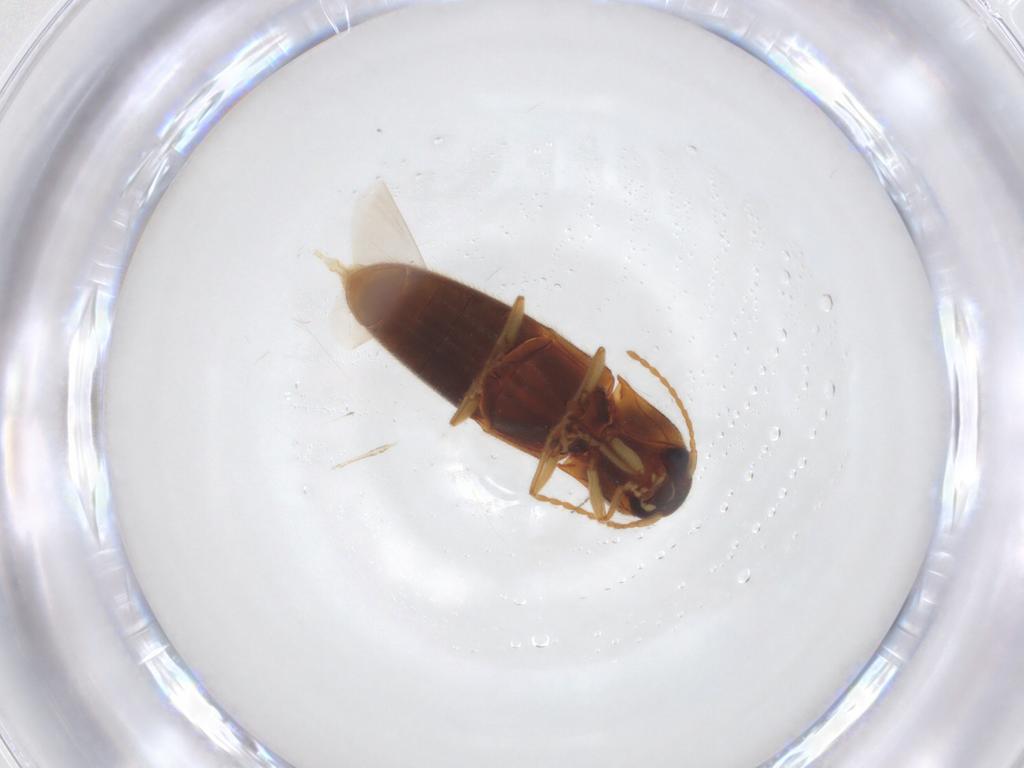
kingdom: Animalia
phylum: Arthropoda
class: Insecta
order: Coleoptera
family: Elateridae
